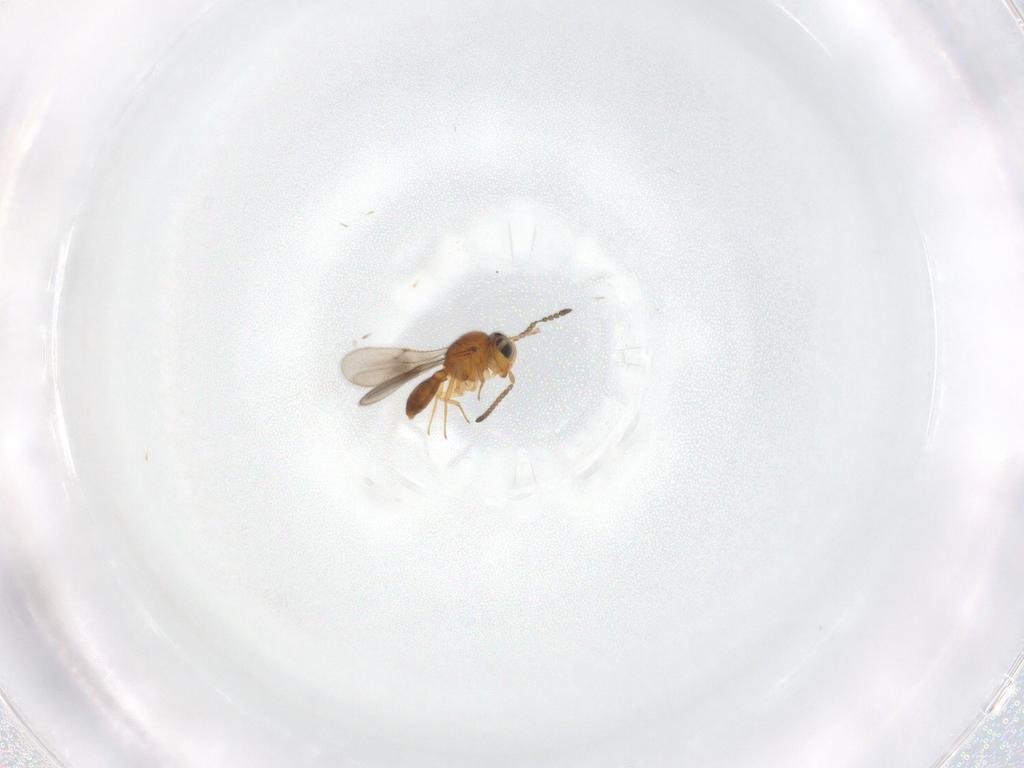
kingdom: Animalia
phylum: Arthropoda
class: Insecta
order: Hymenoptera
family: Scelionidae
